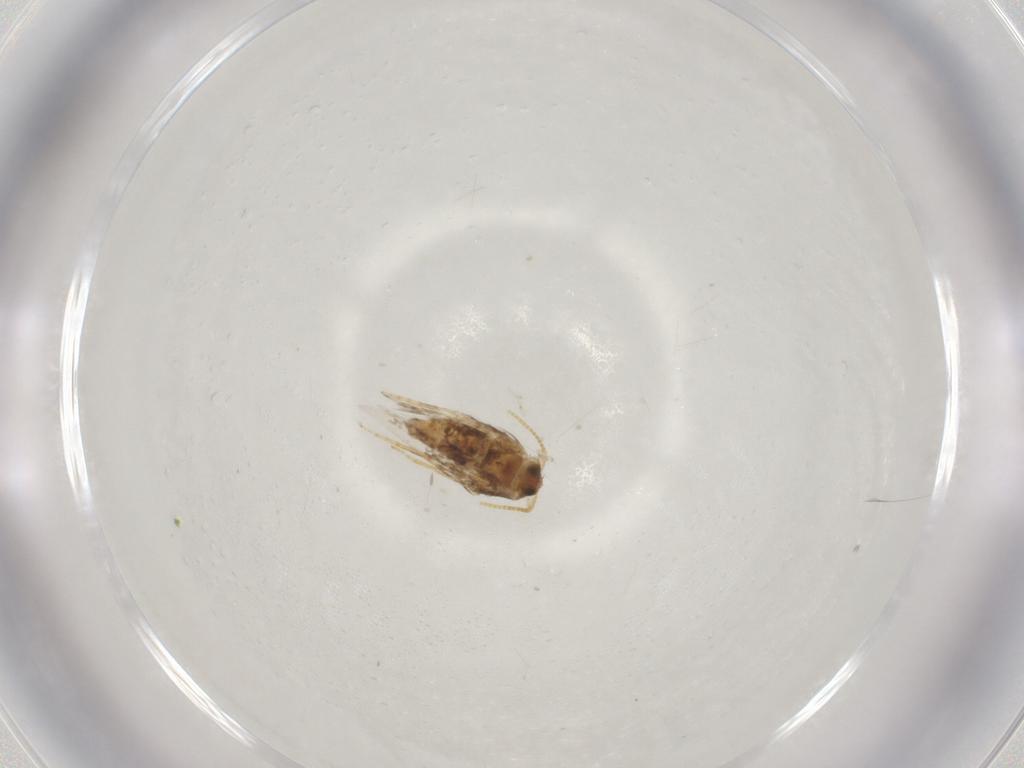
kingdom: Animalia
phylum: Arthropoda
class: Insecta
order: Lepidoptera
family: Nepticulidae
